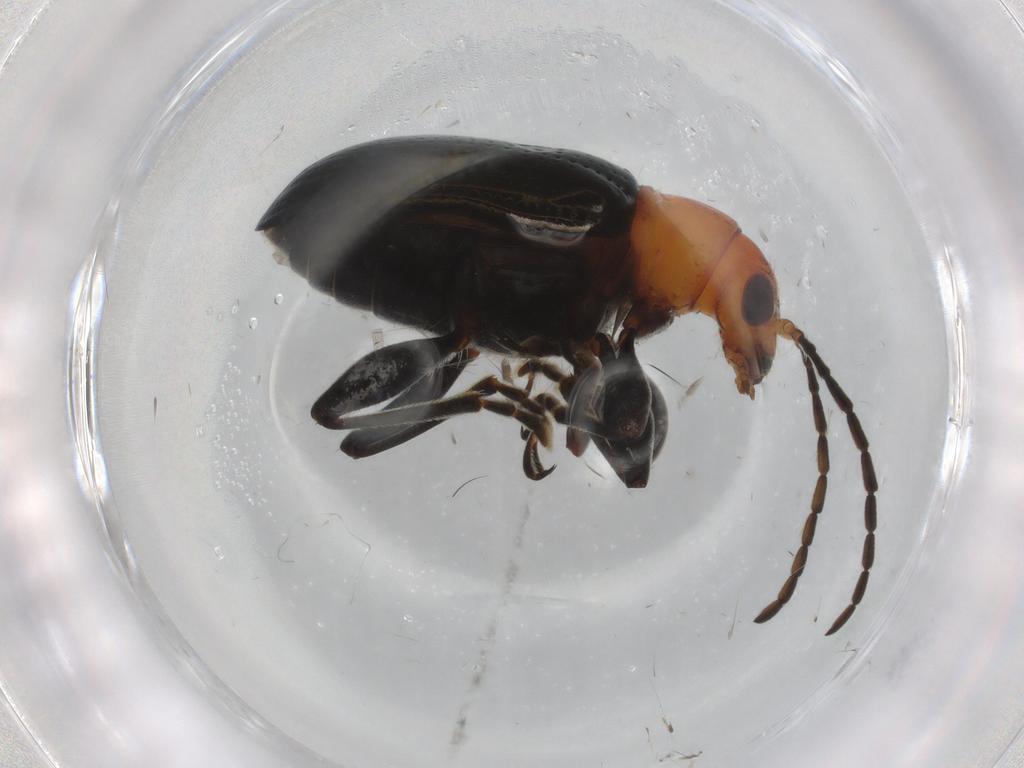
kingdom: Animalia
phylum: Arthropoda
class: Insecta
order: Coleoptera
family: Chrysomelidae
